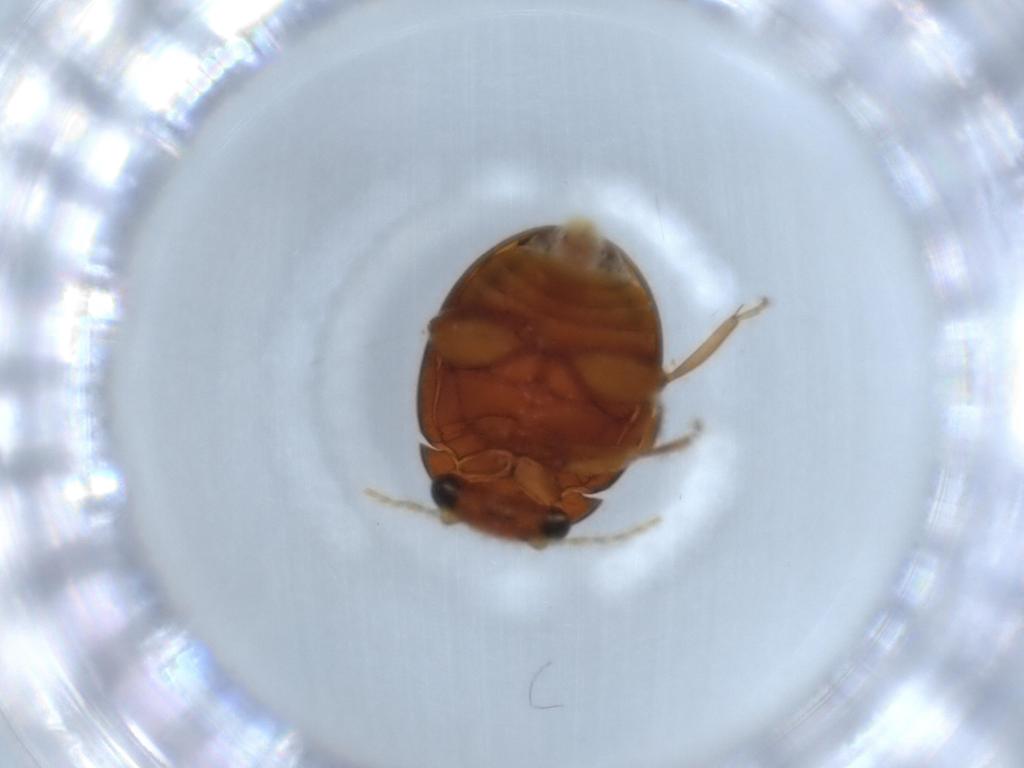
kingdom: Animalia
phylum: Arthropoda
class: Insecta
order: Coleoptera
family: Scirtidae
